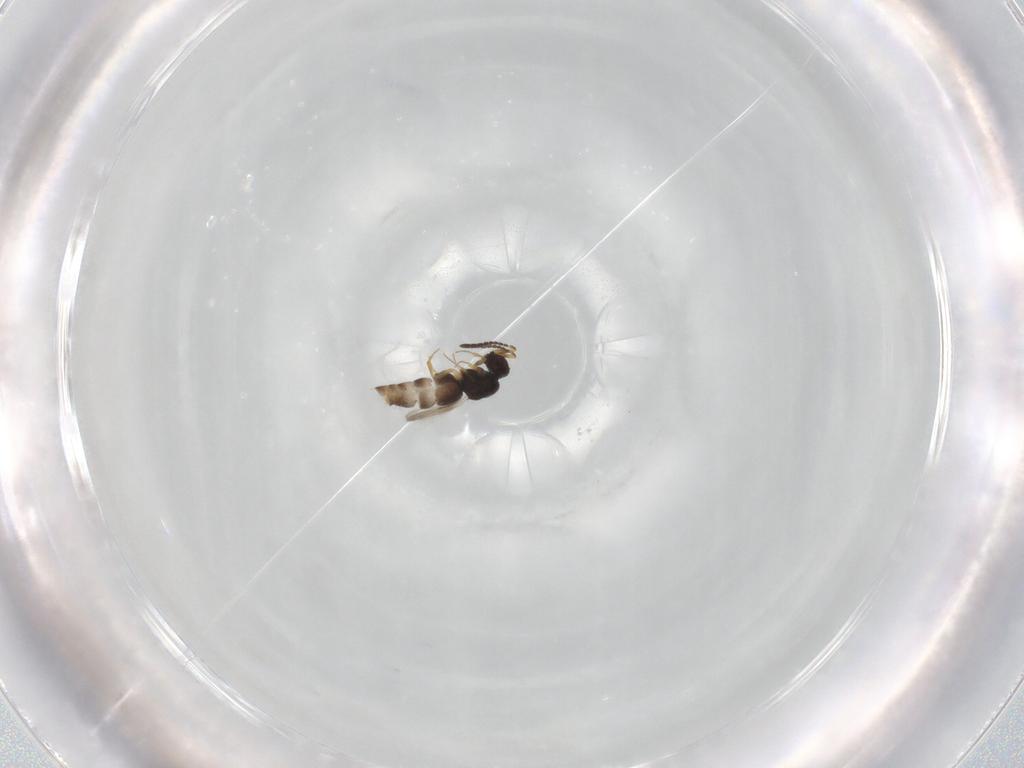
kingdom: Animalia
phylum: Arthropoda
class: Insecta
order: Hymenoptera
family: Ceraphronidae
